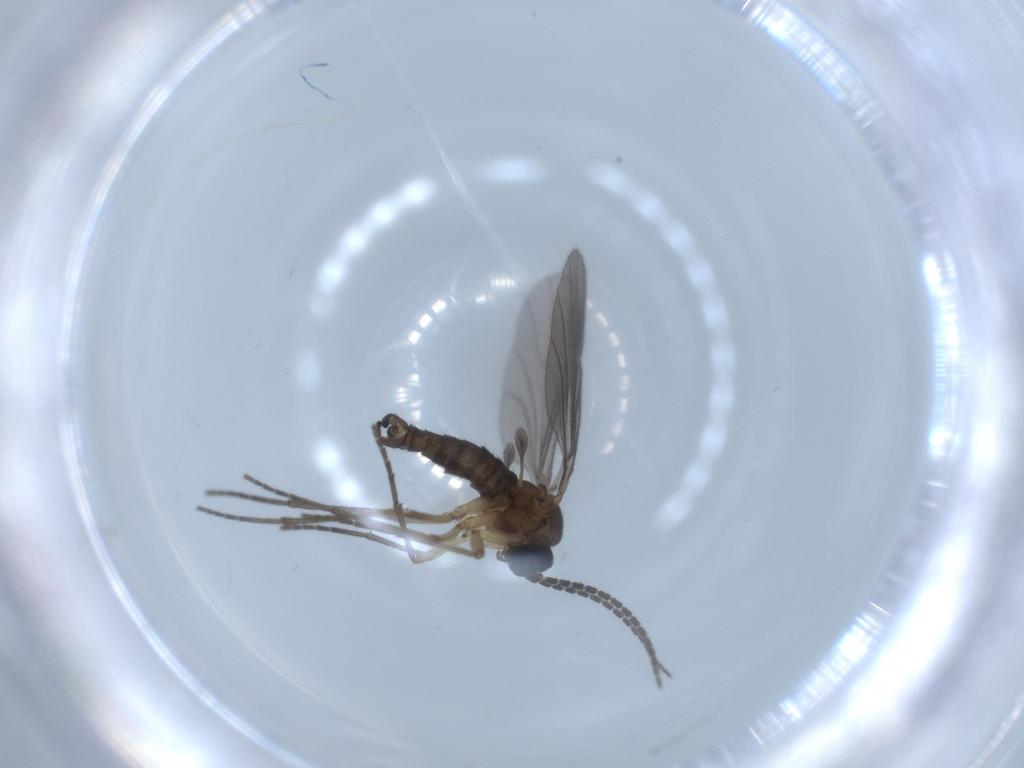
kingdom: Animalia
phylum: Arthropoda
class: Insecta
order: Diptera
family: Sciaridae
